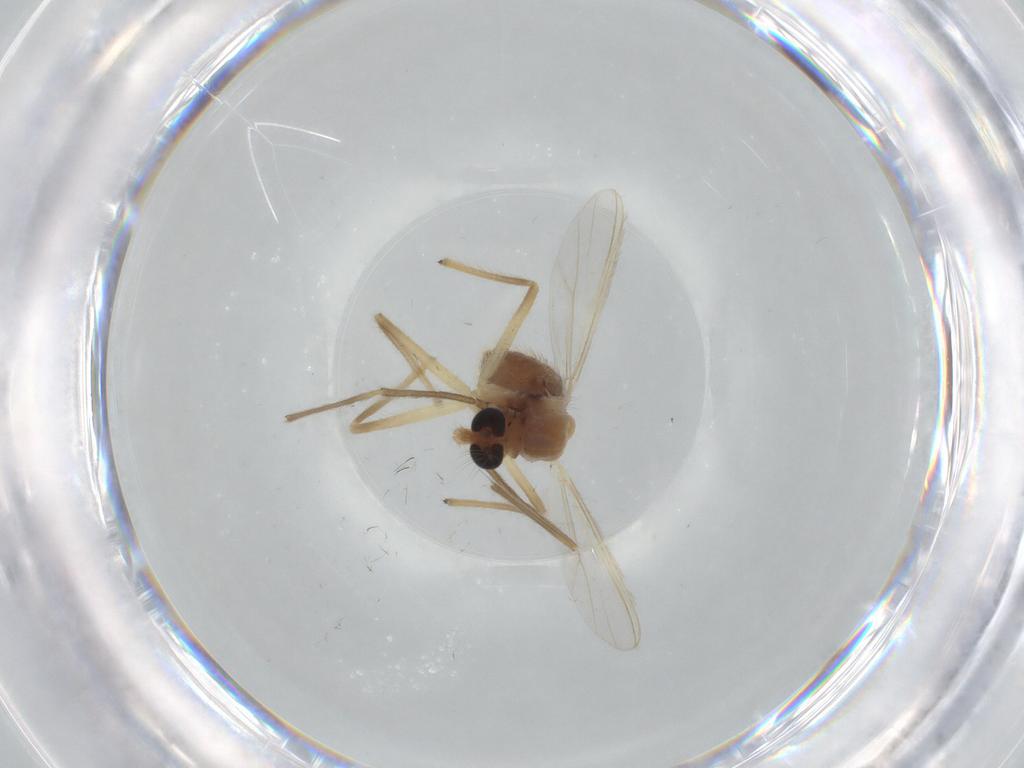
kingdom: Animalia
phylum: Arthropoda
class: Insecta
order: Diptera
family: Chironomidae
